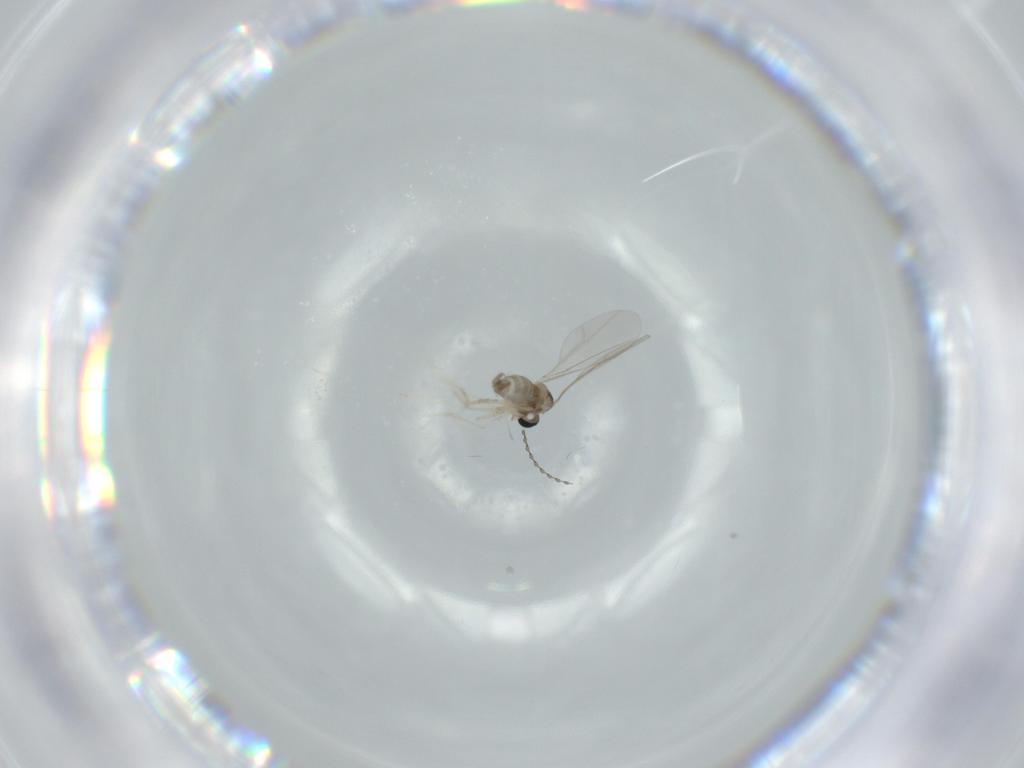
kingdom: Animalia
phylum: Arthropoda
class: Insecta
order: Diptera
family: Cecidomyiidae
